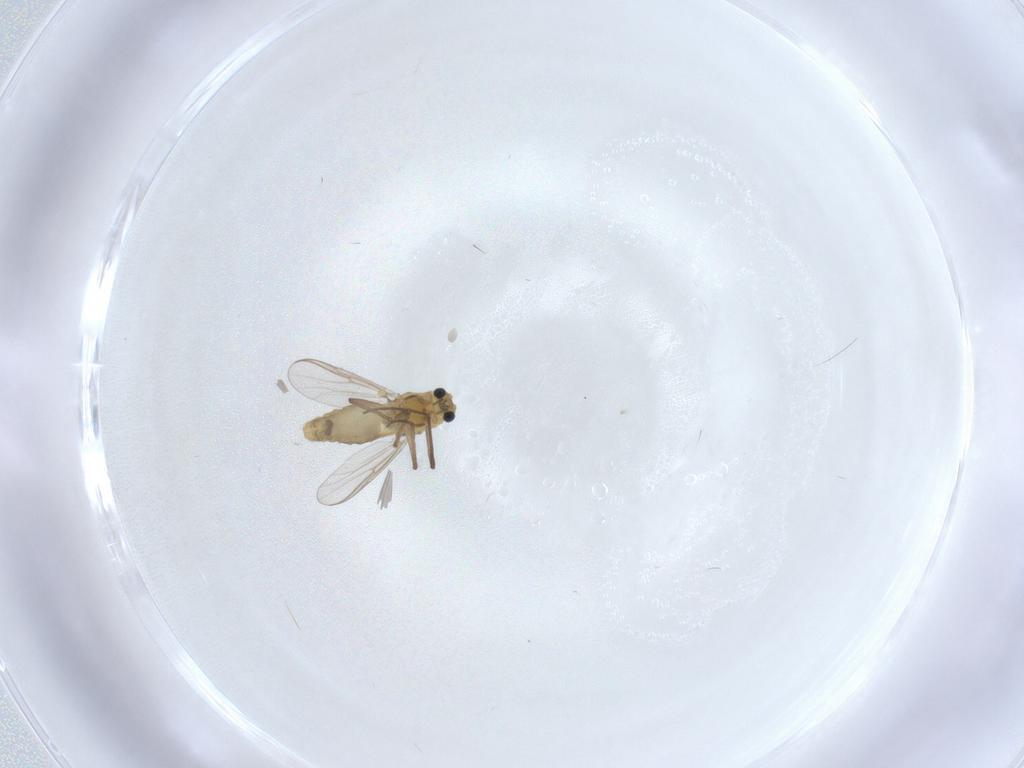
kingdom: Animalia
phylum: Arthropoda
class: Insecta
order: Diptera
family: Cecidomyiidae
